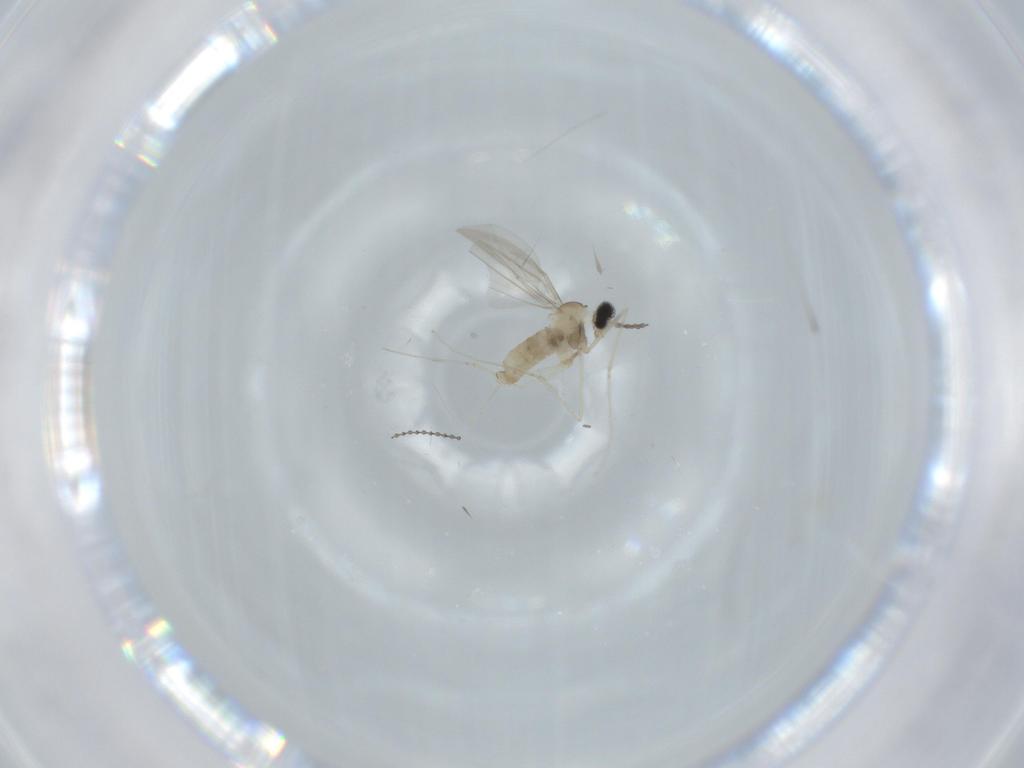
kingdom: Animalia
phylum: Arthropoda
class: Insecta
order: Diptera
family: Cecidomyiidae
